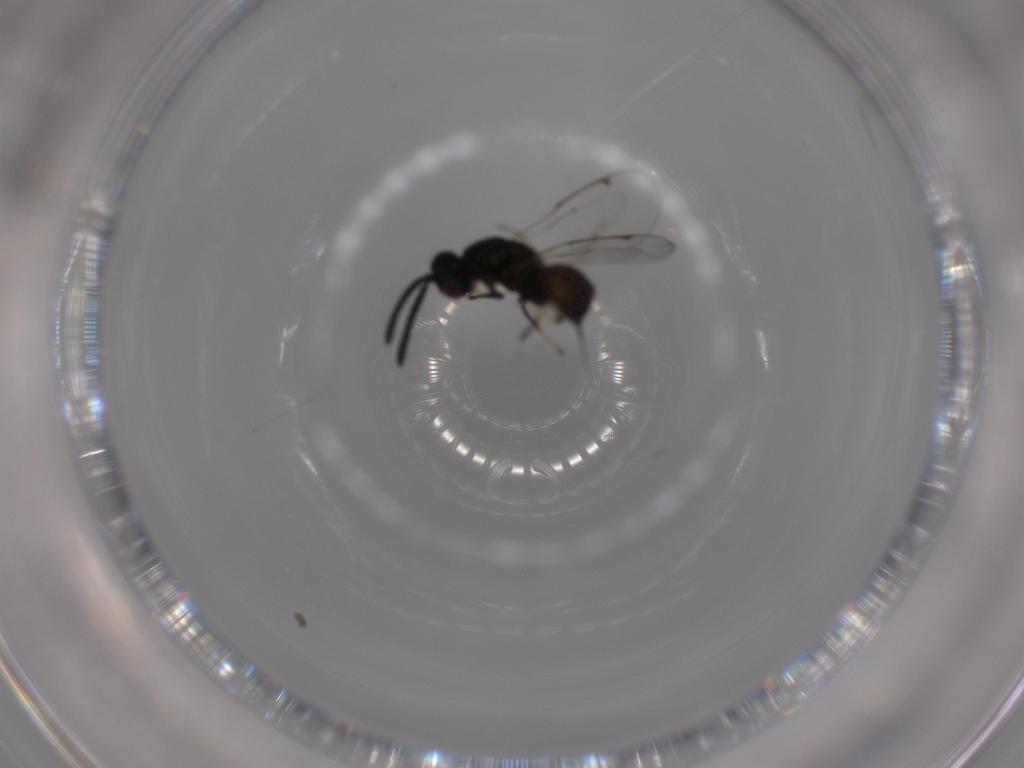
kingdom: Animalia
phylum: Arthropoda
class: Insecta
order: Hymenoptera
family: Torymidae
